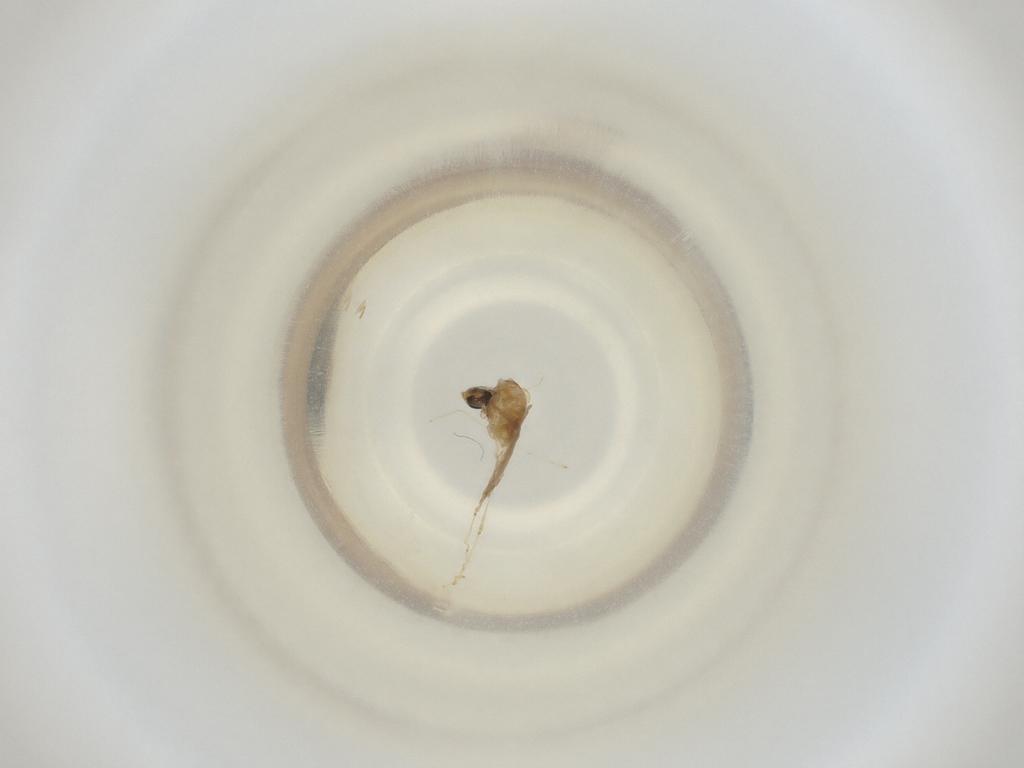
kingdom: Animalia
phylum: Arthropoda
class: Insecta
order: Diptera
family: Cecidomyiidae
